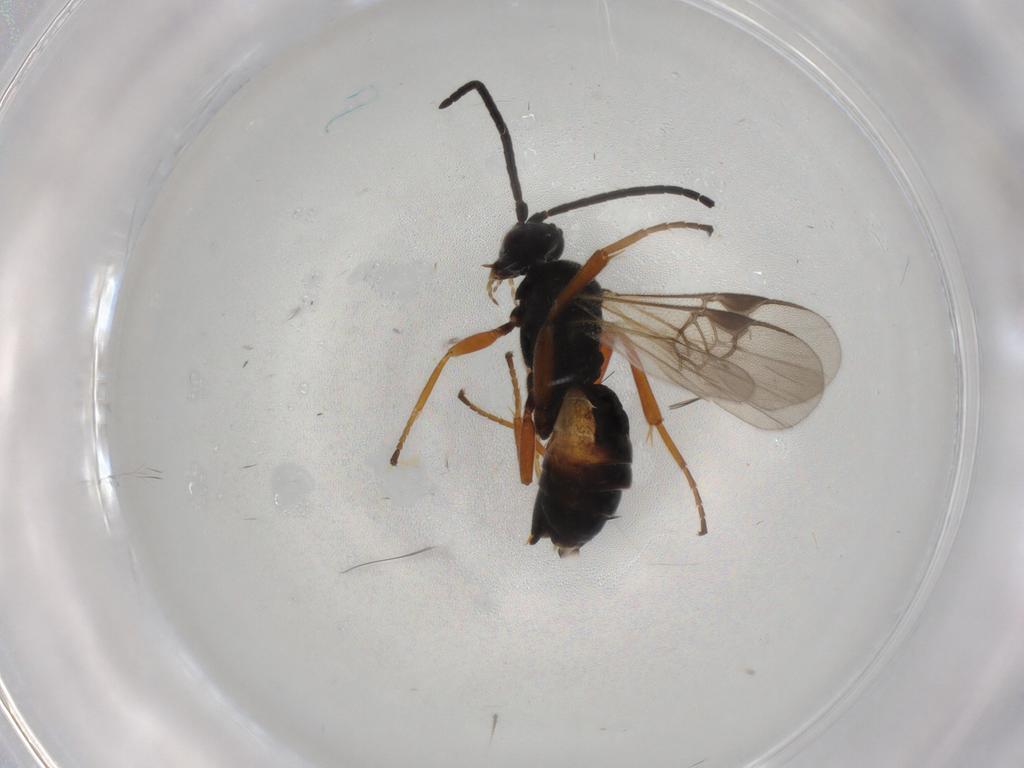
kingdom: Animalia
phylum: Arthropoda
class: Insecta
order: Hymenoptera
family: Braconidae
